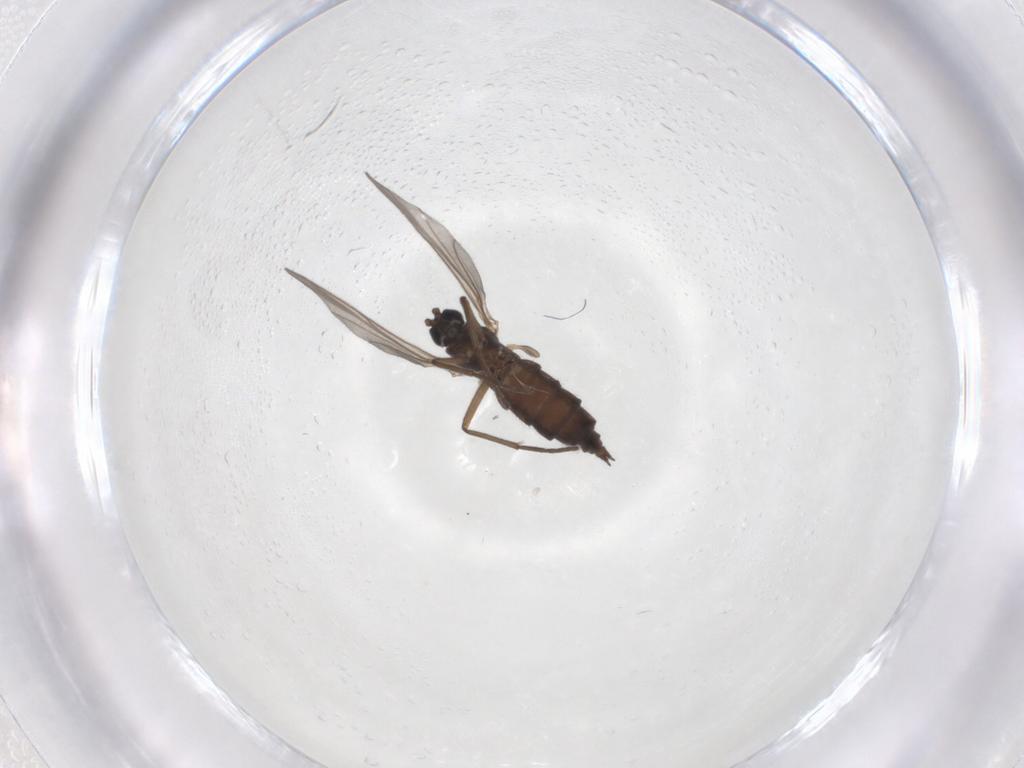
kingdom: Animalia
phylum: Arthropoda
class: Insecta
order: Diptera
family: Sciaridae
